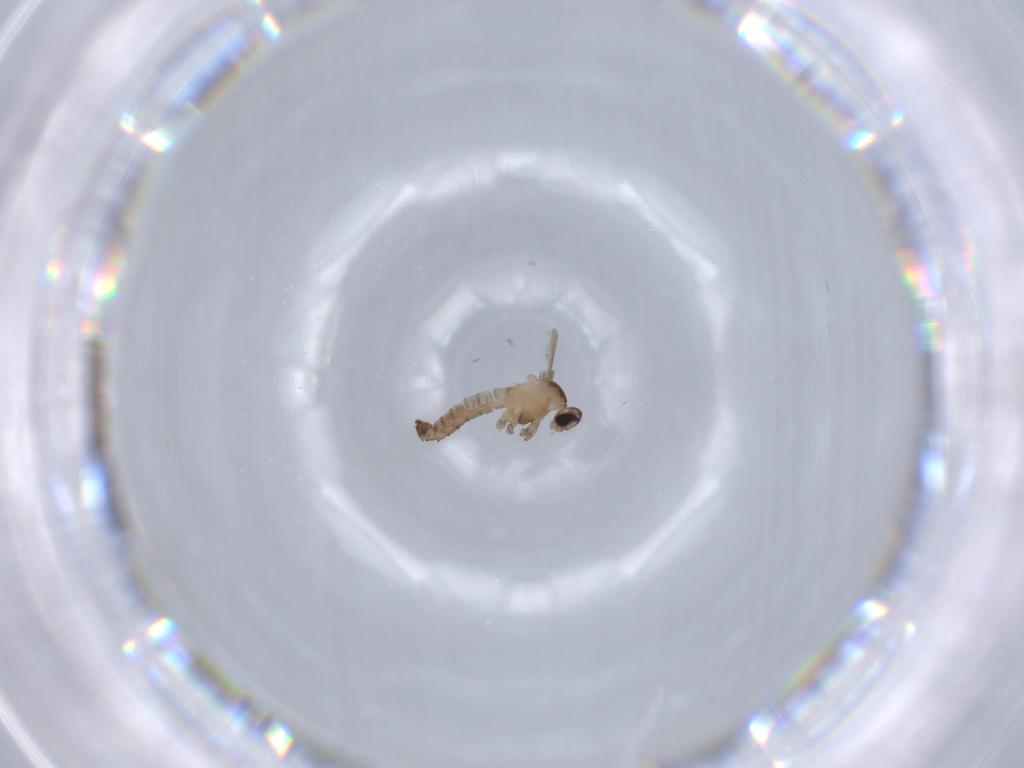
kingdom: Animalia
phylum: Arthropoda
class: Insecta
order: Diptera
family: Cecidomyiidae
